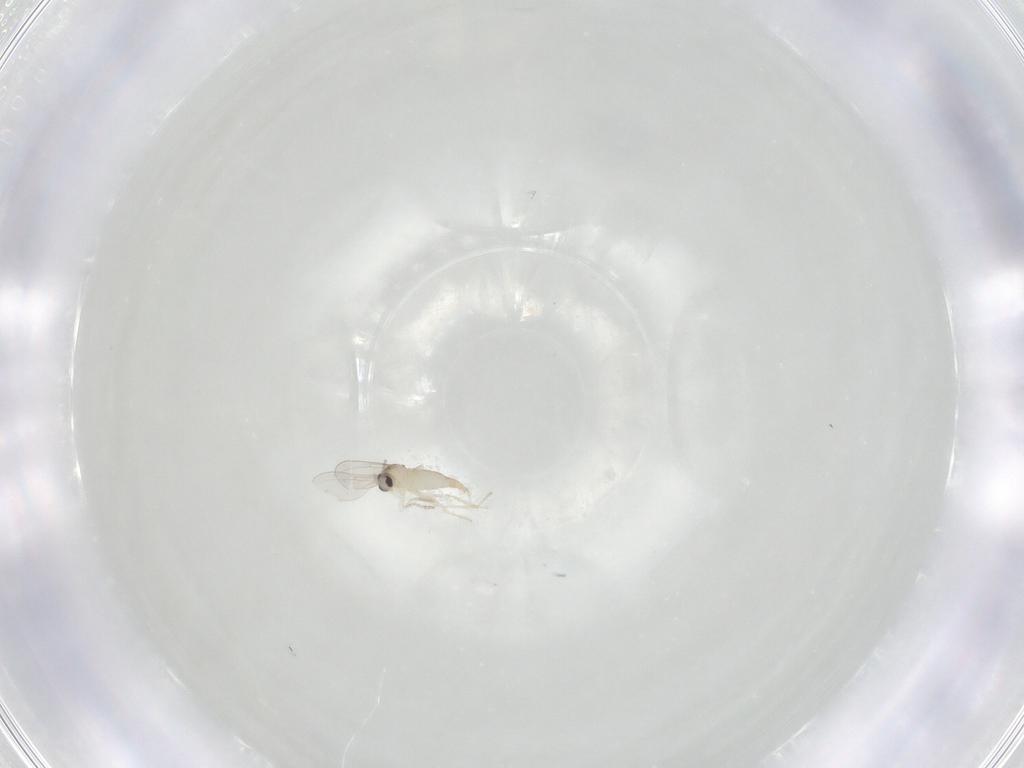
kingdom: Animalia
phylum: Arthropoda
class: Insecta
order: Diptera
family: Cecidomyiidae
